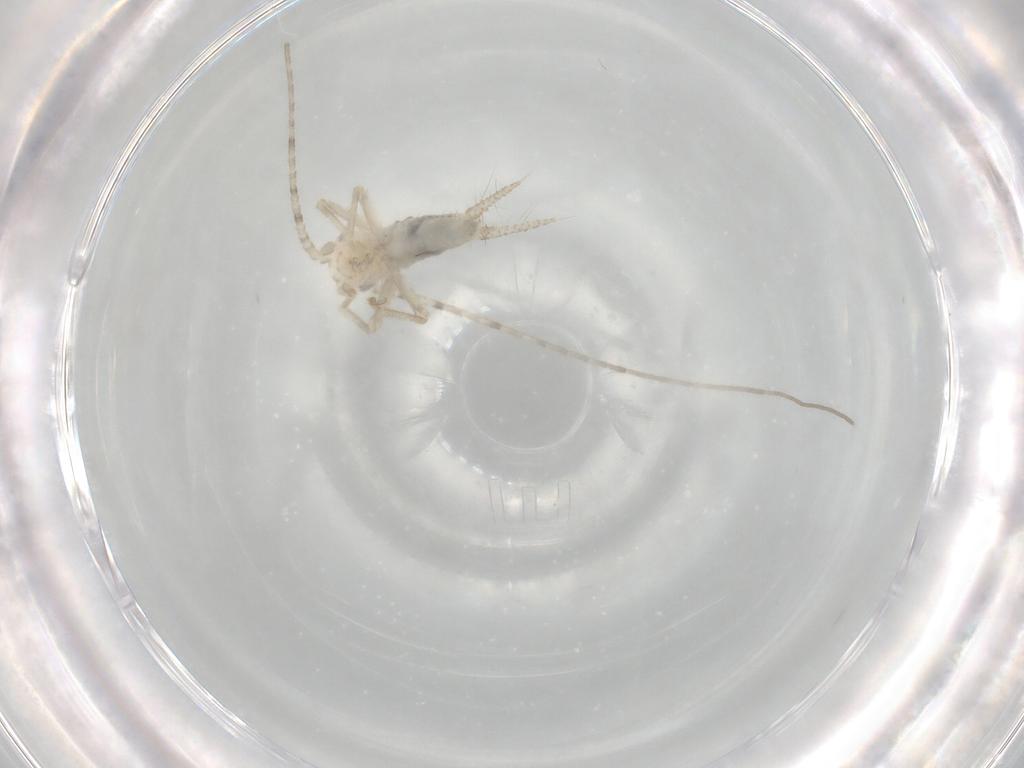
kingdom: Animalia
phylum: Arthropoda
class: Insecta
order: Orthoptera
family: Trigonidiidae
